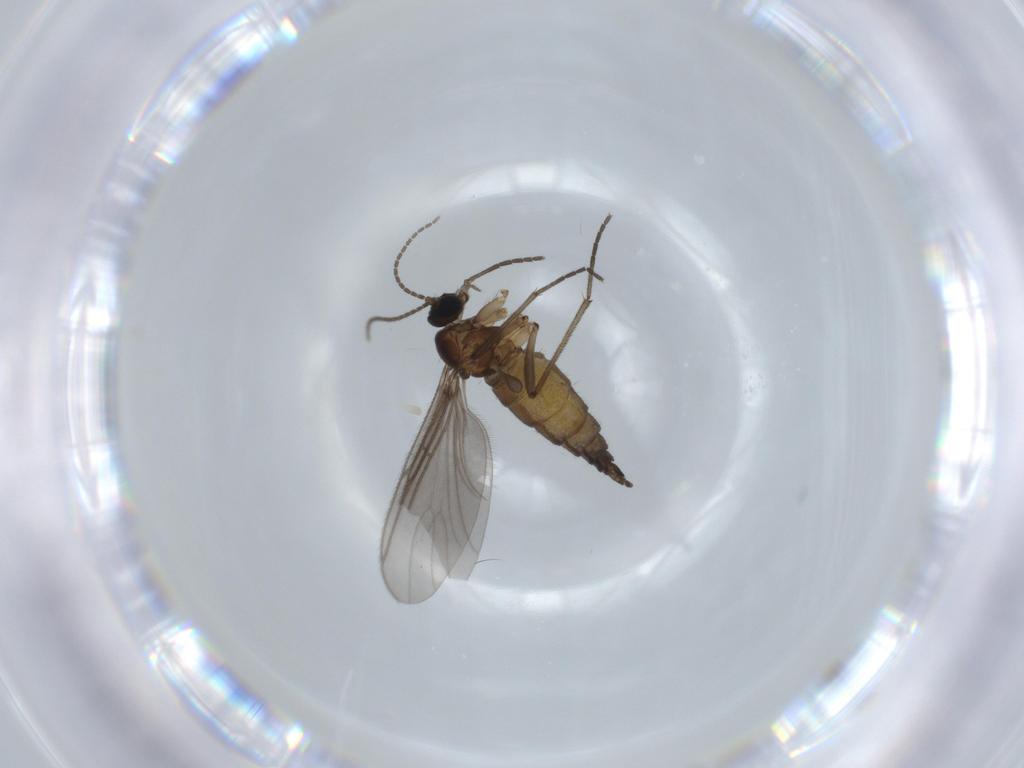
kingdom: Animalia
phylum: Arthropoda
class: Insecta
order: Diptera
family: Sciaridae
